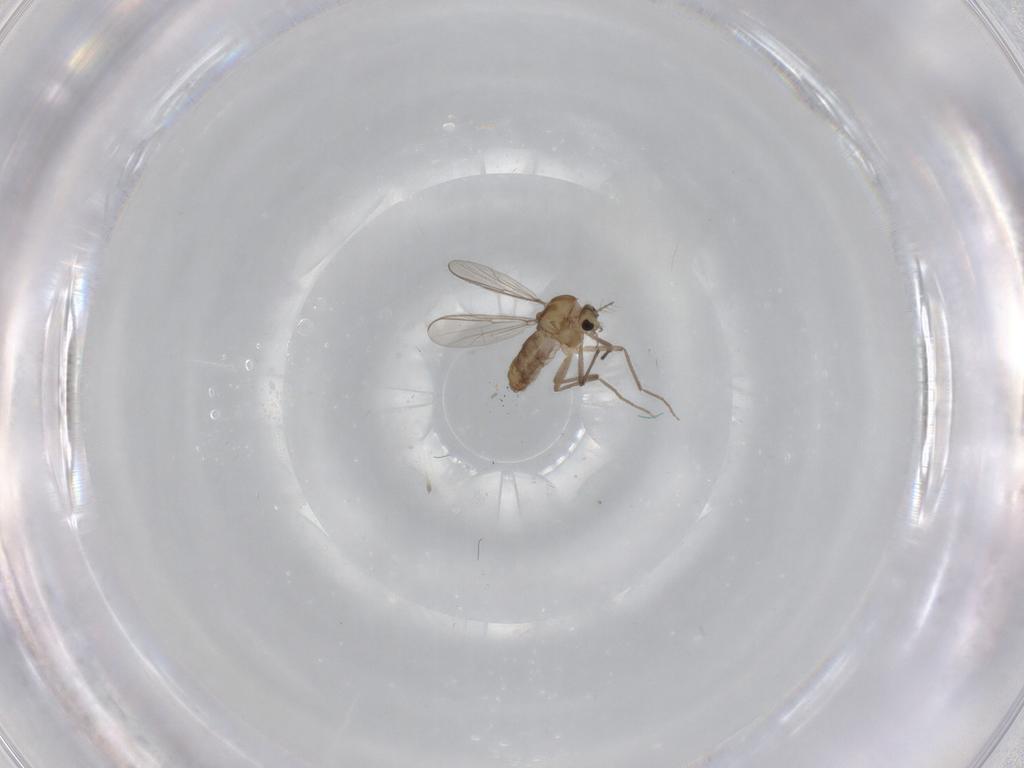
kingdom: Animalia
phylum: Arthropoda
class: Insecta
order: Diptera
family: Chironomidae
